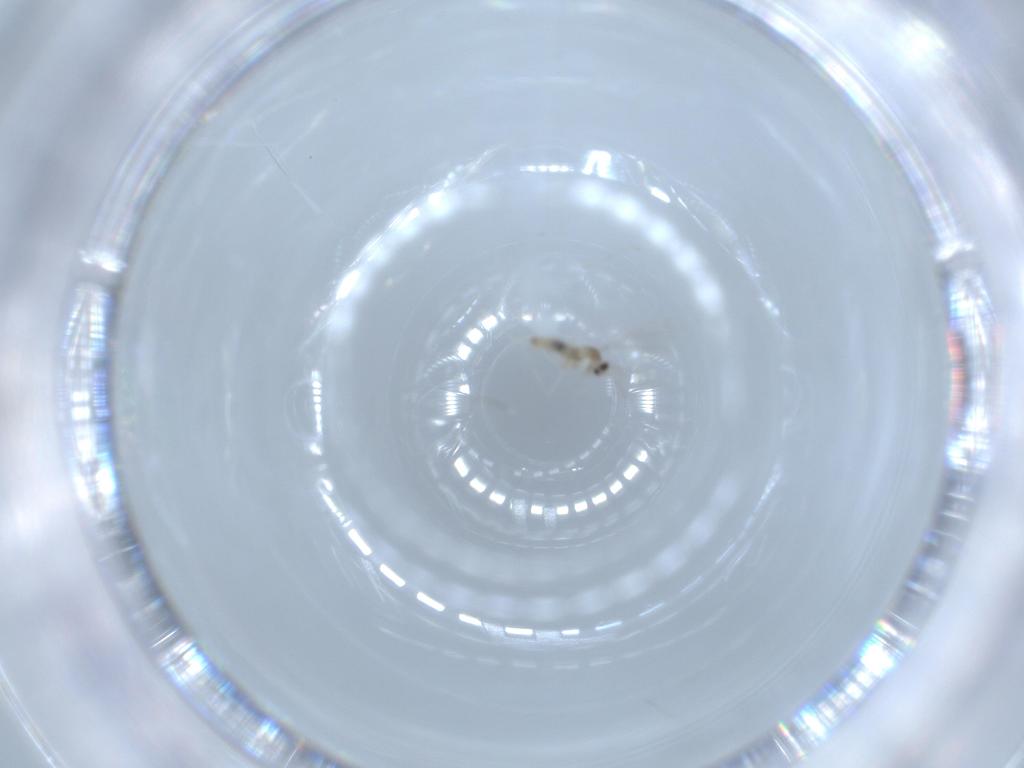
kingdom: Animalia
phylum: Arthropoda
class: Insecta
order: Diptera
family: Cecidomyiidae
